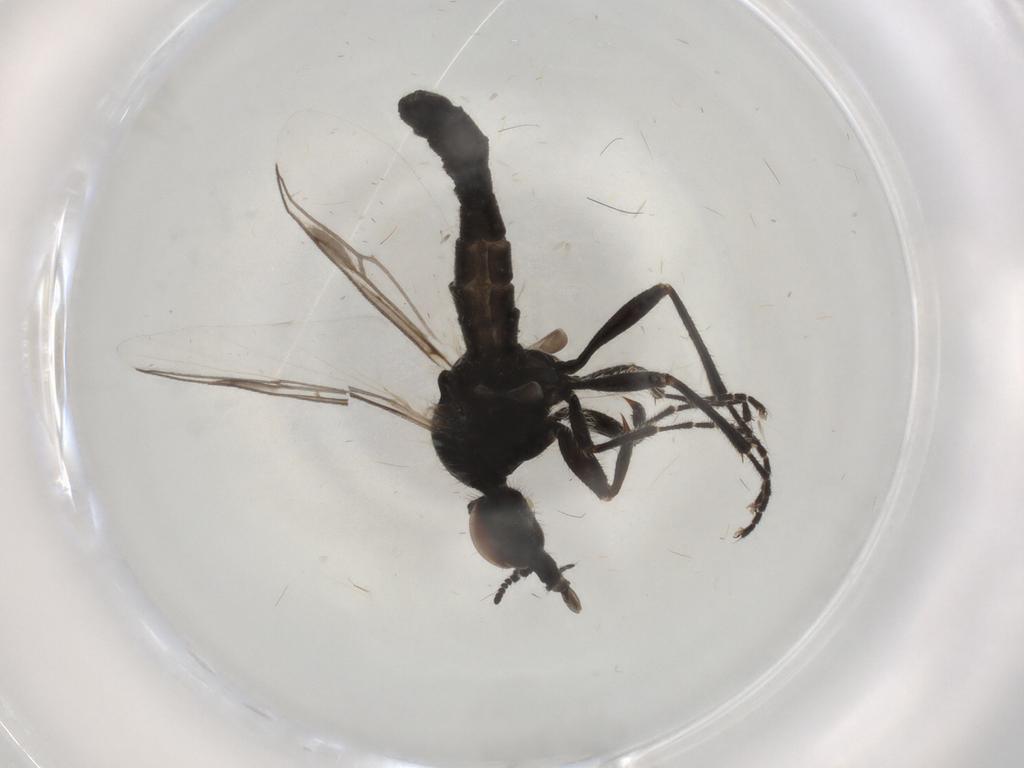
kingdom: Animalia
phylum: Arthropoda
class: Insecta
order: Diptera
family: Bibionidae
